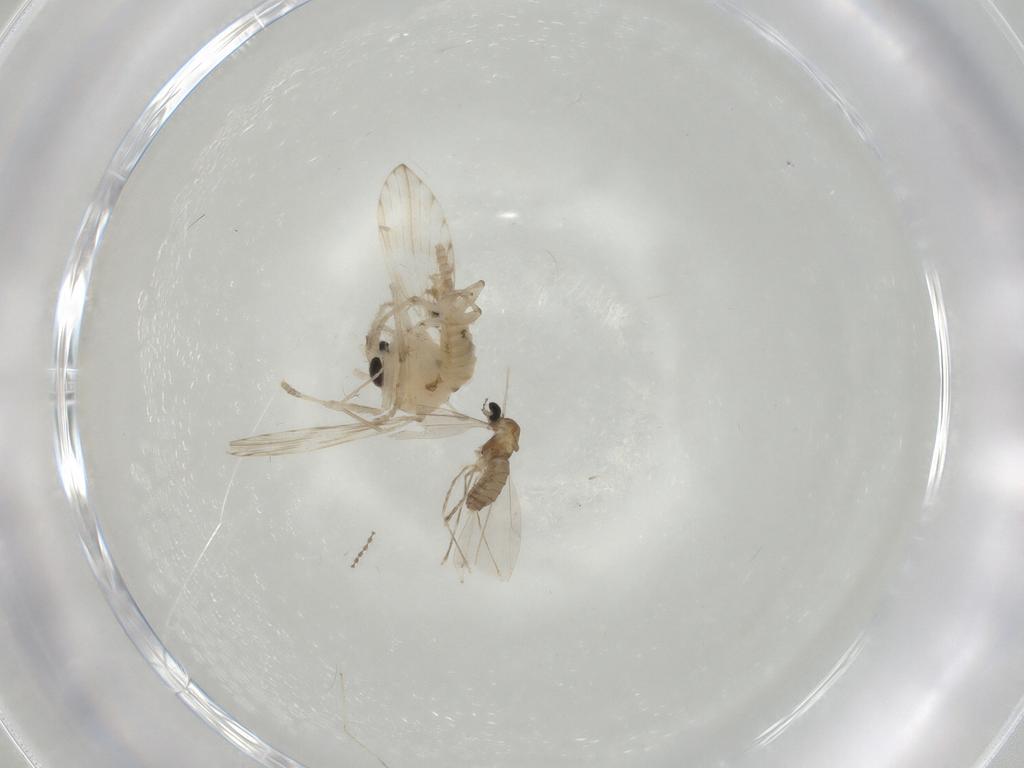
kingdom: Animalia
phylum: Arthropoda
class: Insecta
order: Diptera
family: Psychodidae
